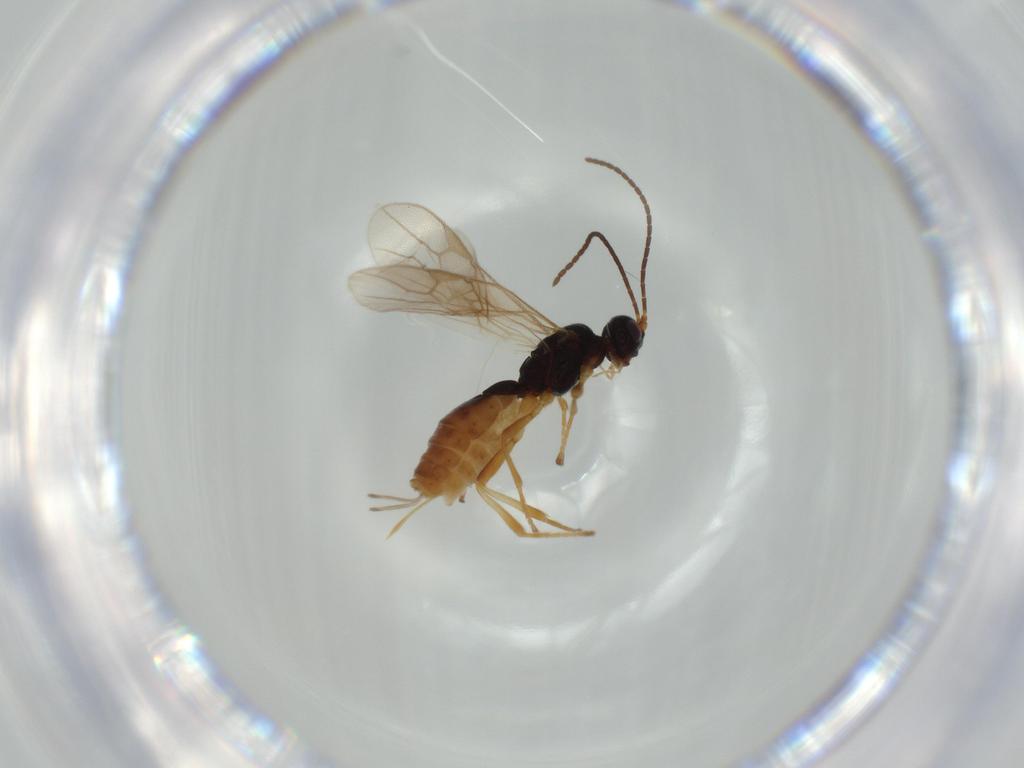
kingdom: Animalia
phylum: Arthropoda
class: Insecta
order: Hymenoptera
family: Braconidae
